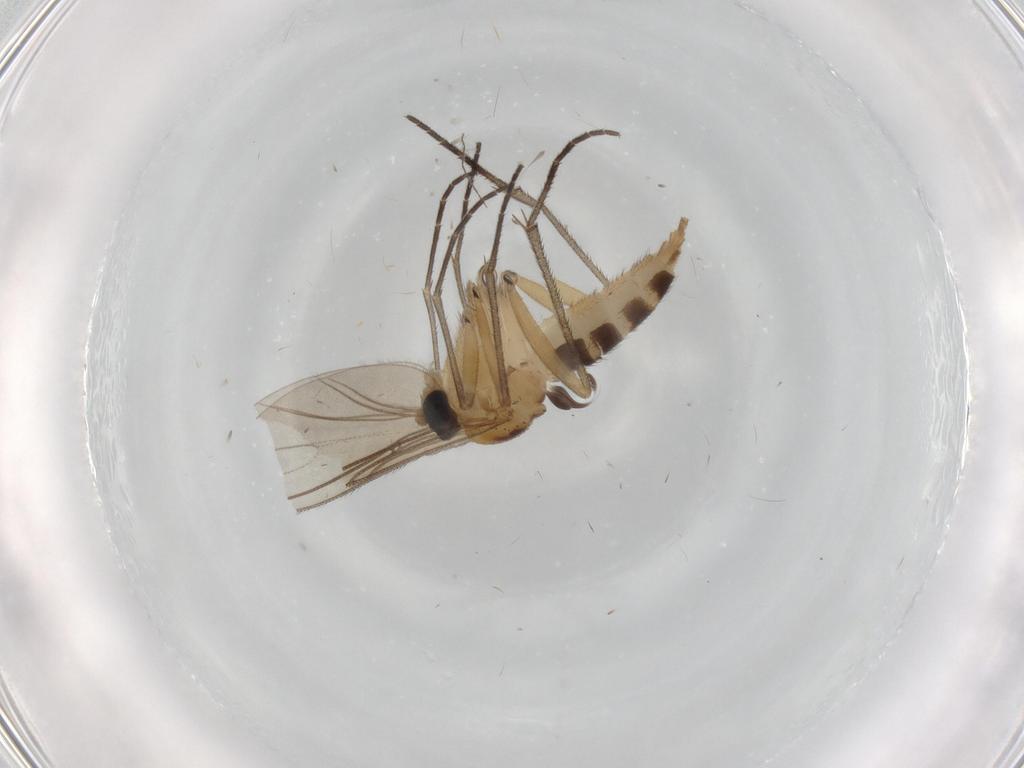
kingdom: Animalia
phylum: Arthropoda
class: Insecta
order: Diptera
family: Sciaridae
